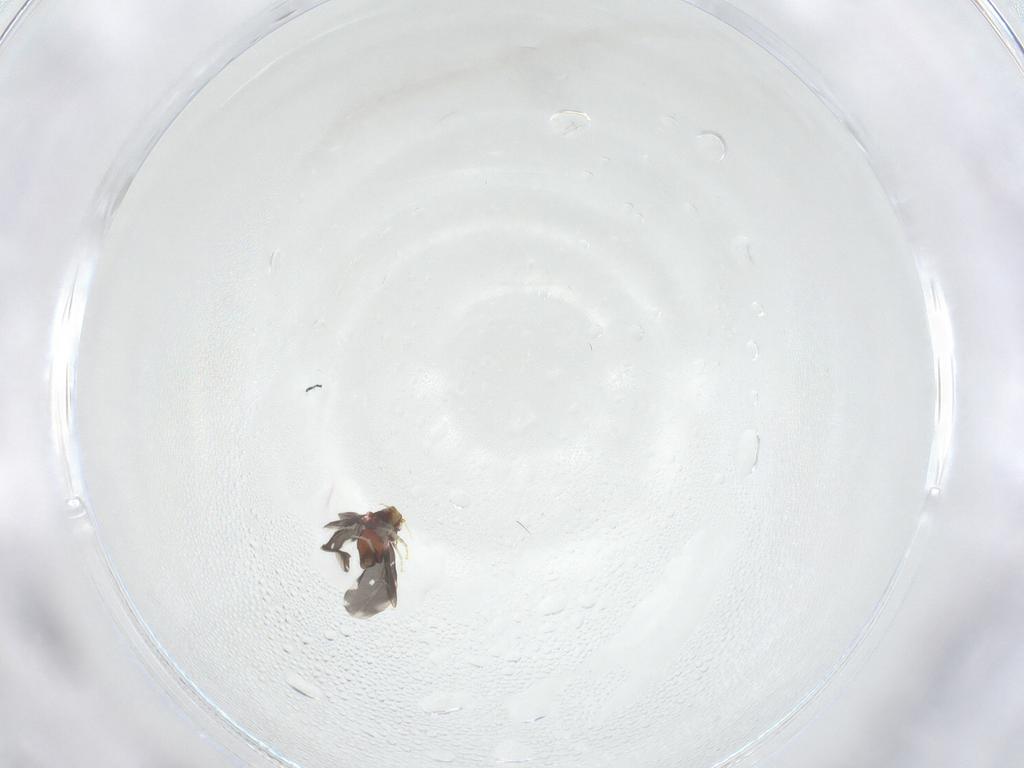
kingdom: Animalia
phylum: Arthropoda
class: Insecta
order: Hemiptera
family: Aleyrodidae
